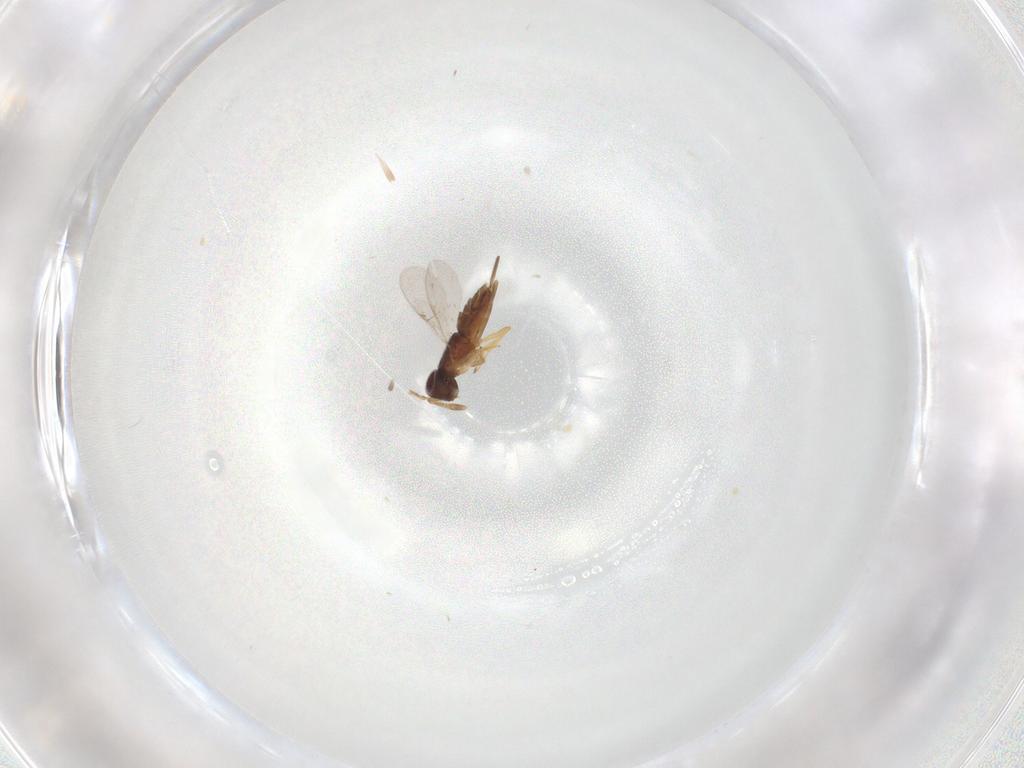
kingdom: Animalia
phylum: Arthropoda
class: Insecta
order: Hymenoptera
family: Encyrtidae
